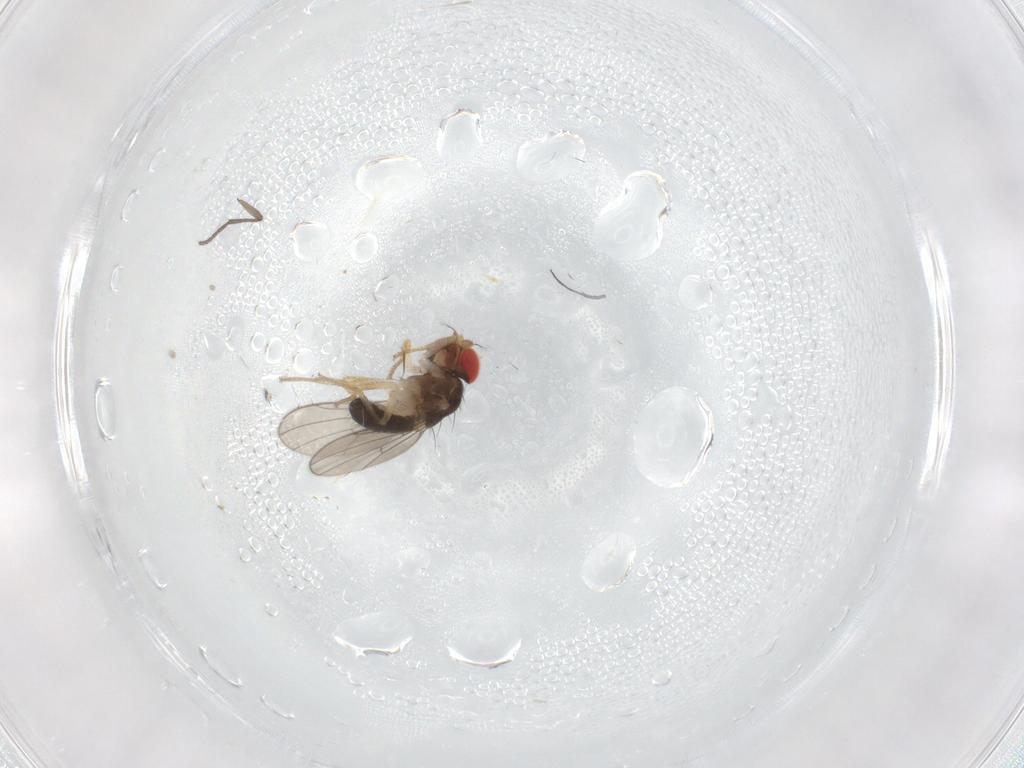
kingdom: Animalia
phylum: Arthropoda
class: Insecta
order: Diptera
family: Drosophilidae
